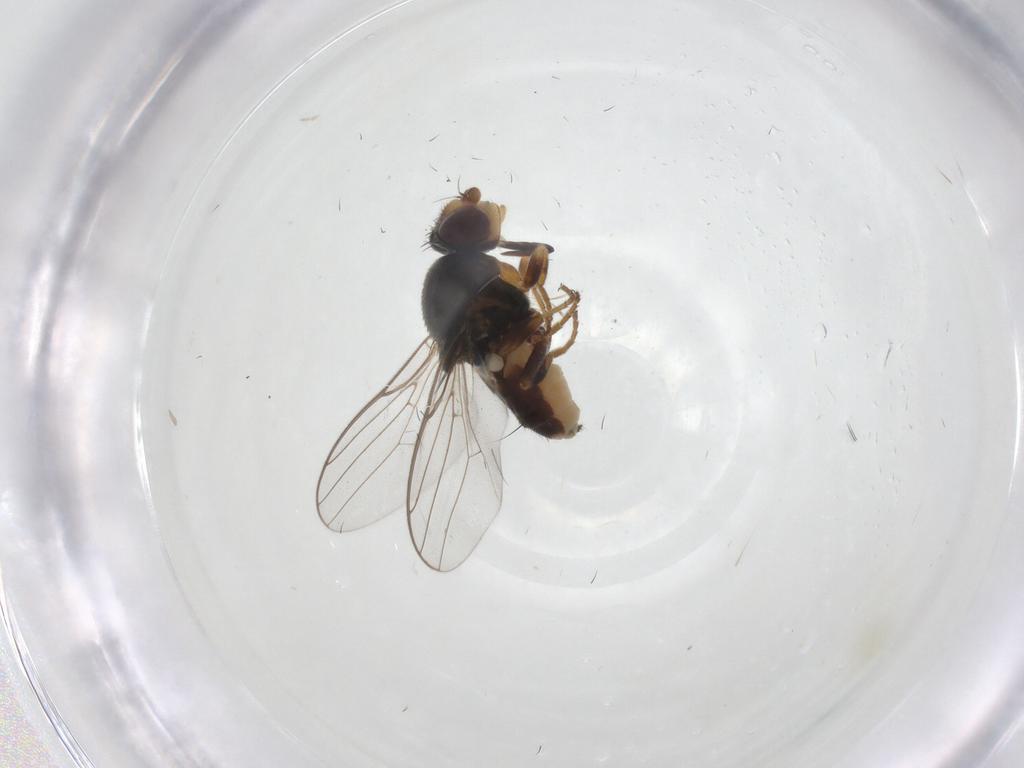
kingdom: Animalia
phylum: Arthropoda
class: Insecta
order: Diptera
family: Chloropidae
